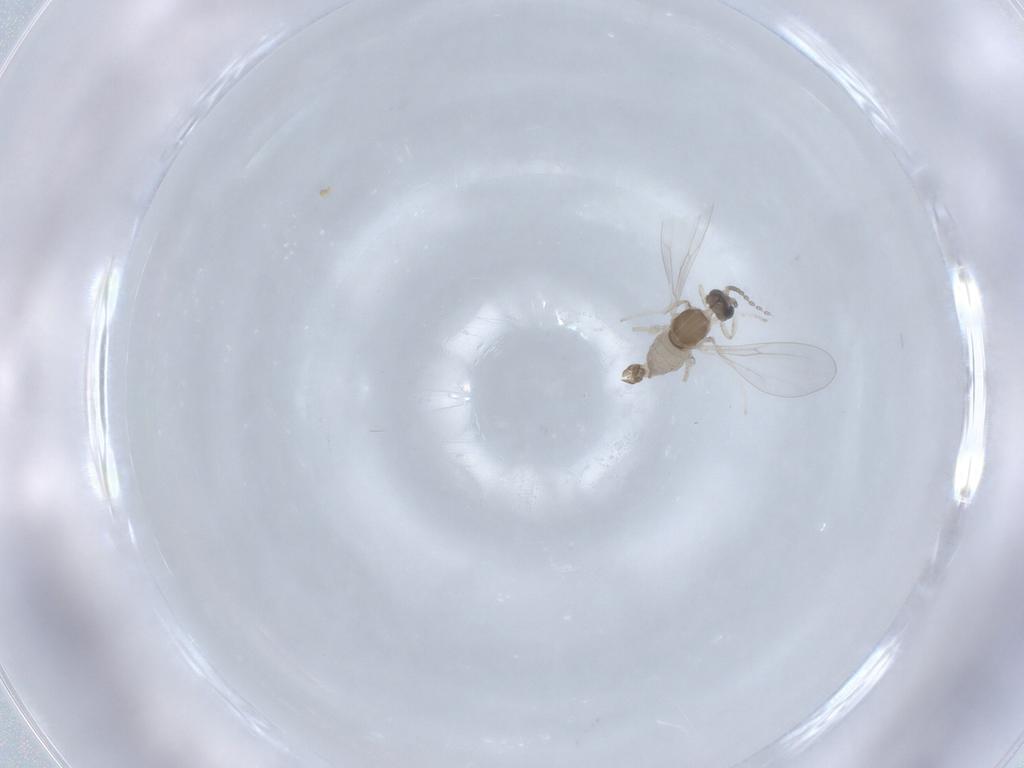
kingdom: Animalia
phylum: Arthropoda
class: Insecta
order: Diptera
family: Cecidomyiidae
